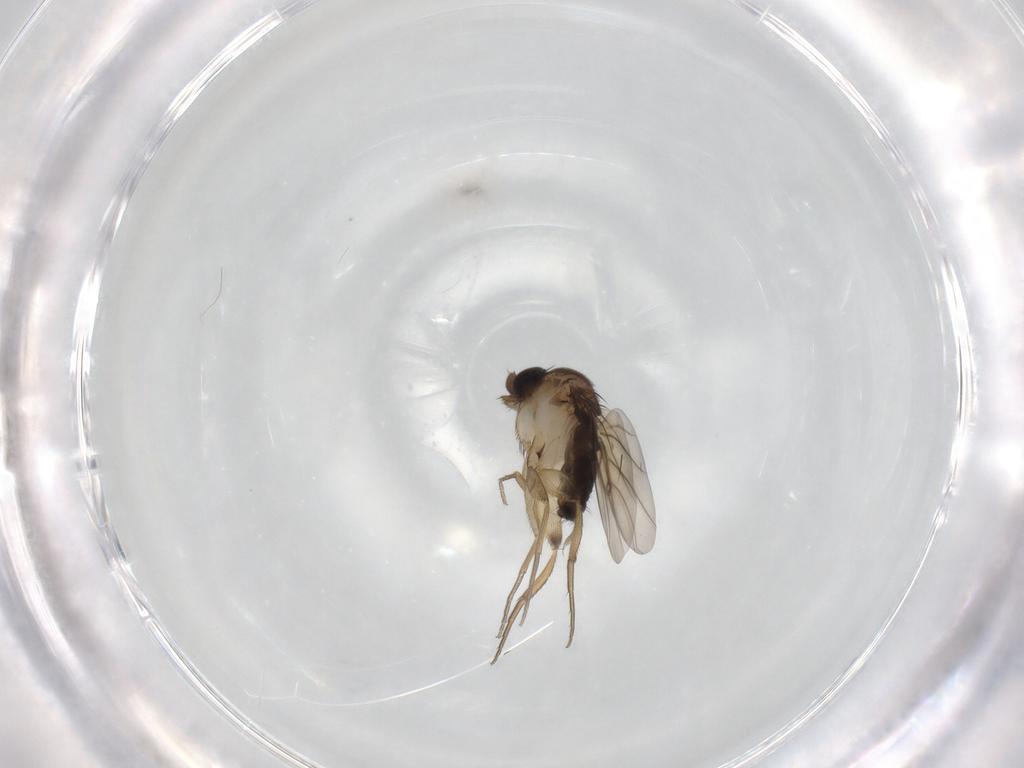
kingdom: Animalia
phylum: Arthropoda
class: Insecta
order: Diptera
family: Phoridae
